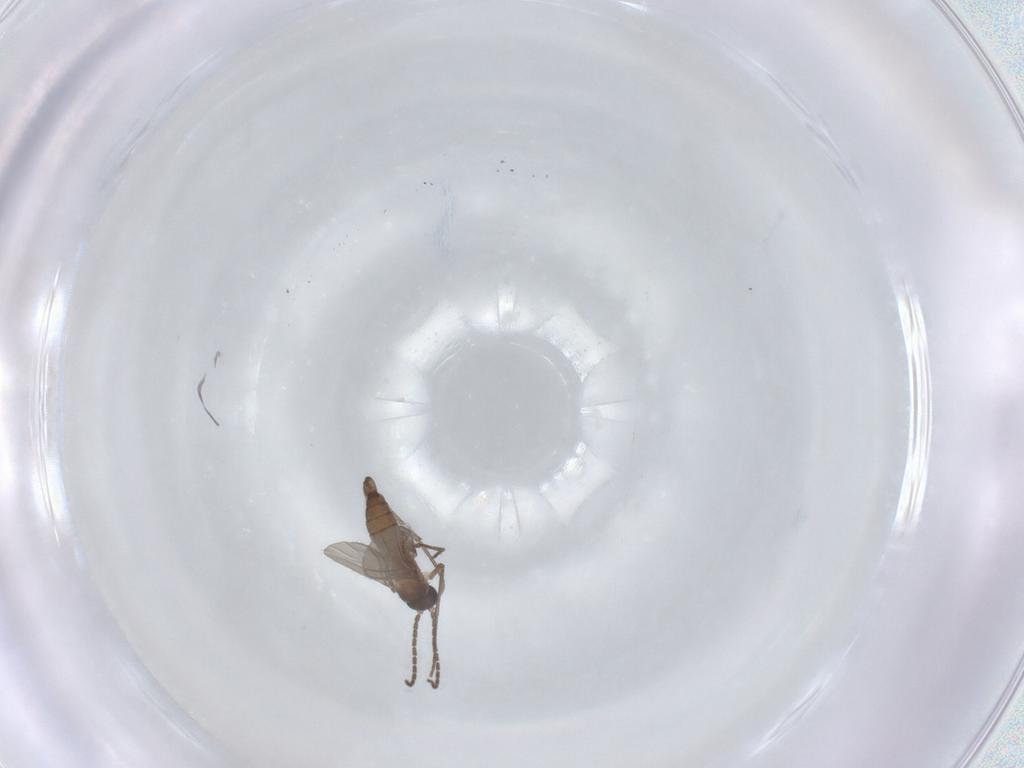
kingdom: Animalia
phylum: Arthropoda
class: Insecta
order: Diptera
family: Sciaridae
